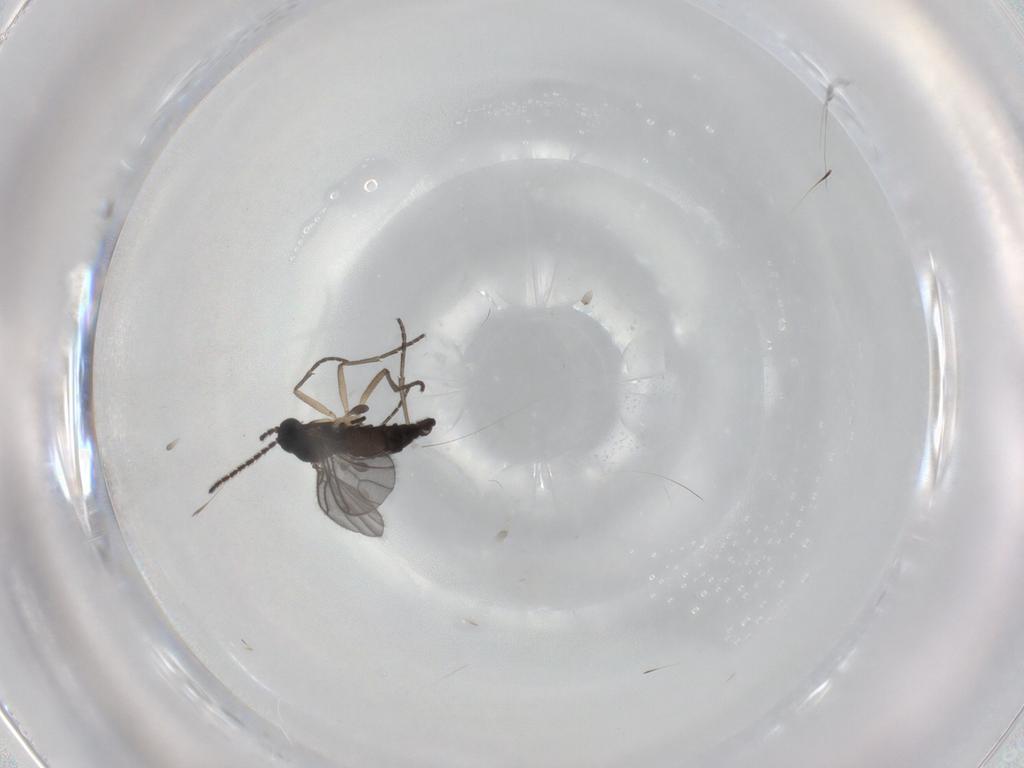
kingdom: Animalia
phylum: Arthropoda
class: Insecta
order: Diptera
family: Sciaridae
